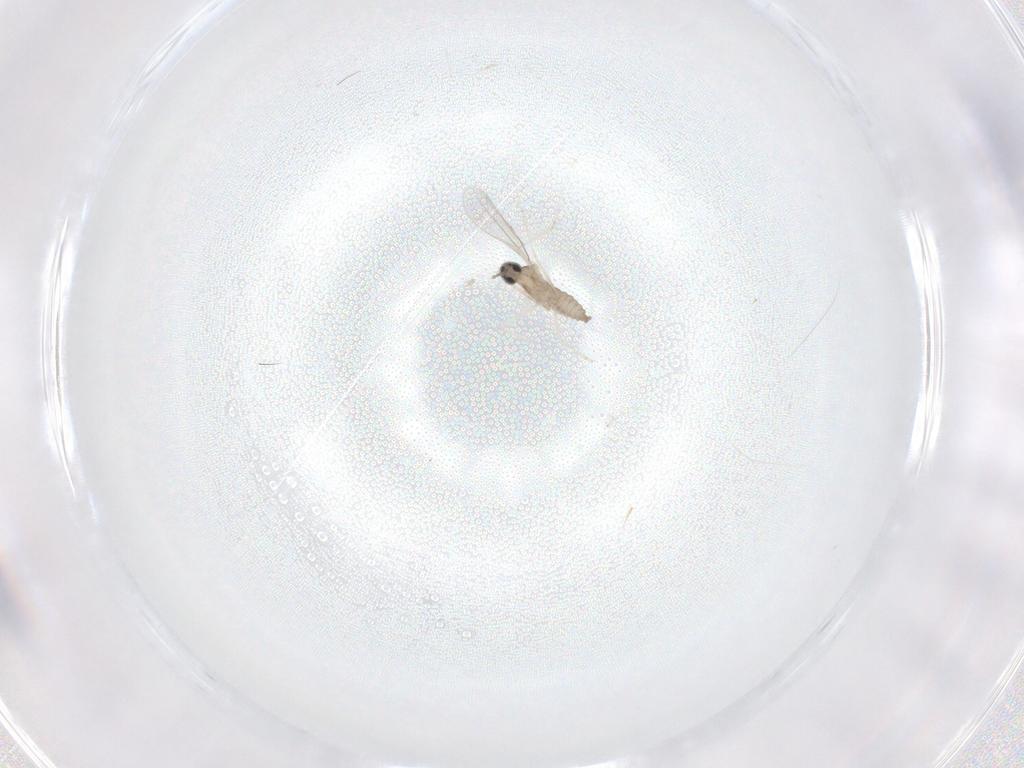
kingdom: Animalia
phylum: Arthropoda
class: Insecta
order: Diptera
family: Cecidomyiidae
